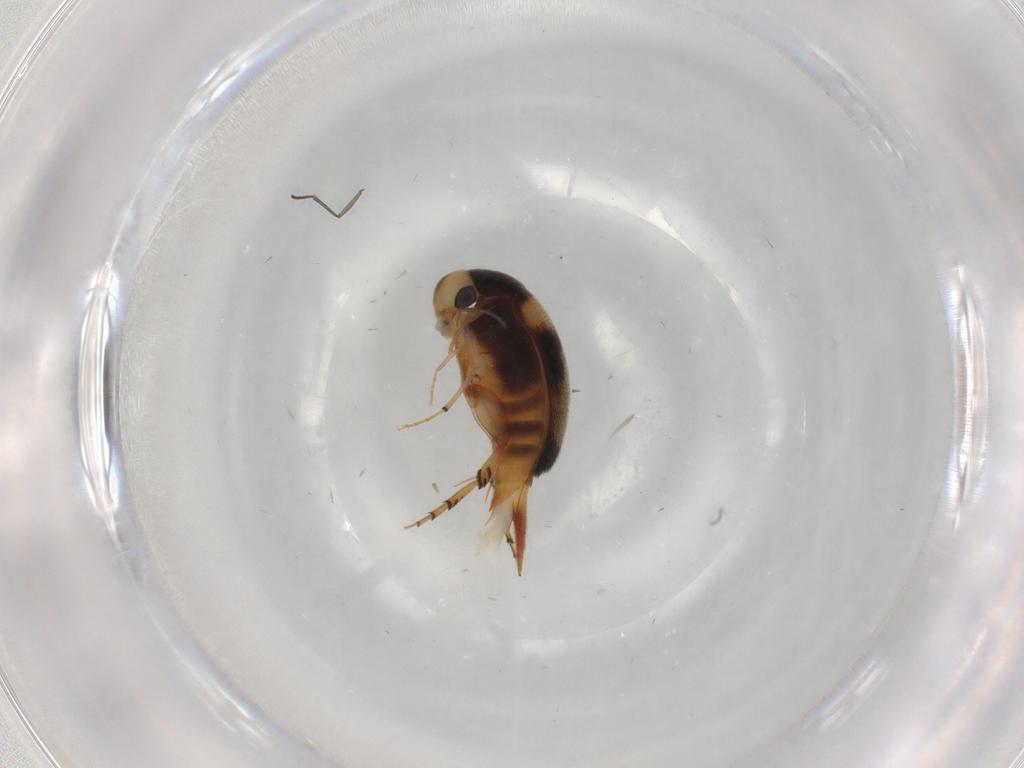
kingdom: Animalia
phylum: Arthropoda
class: Insecta
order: Coleoptera
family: Mordellidae
